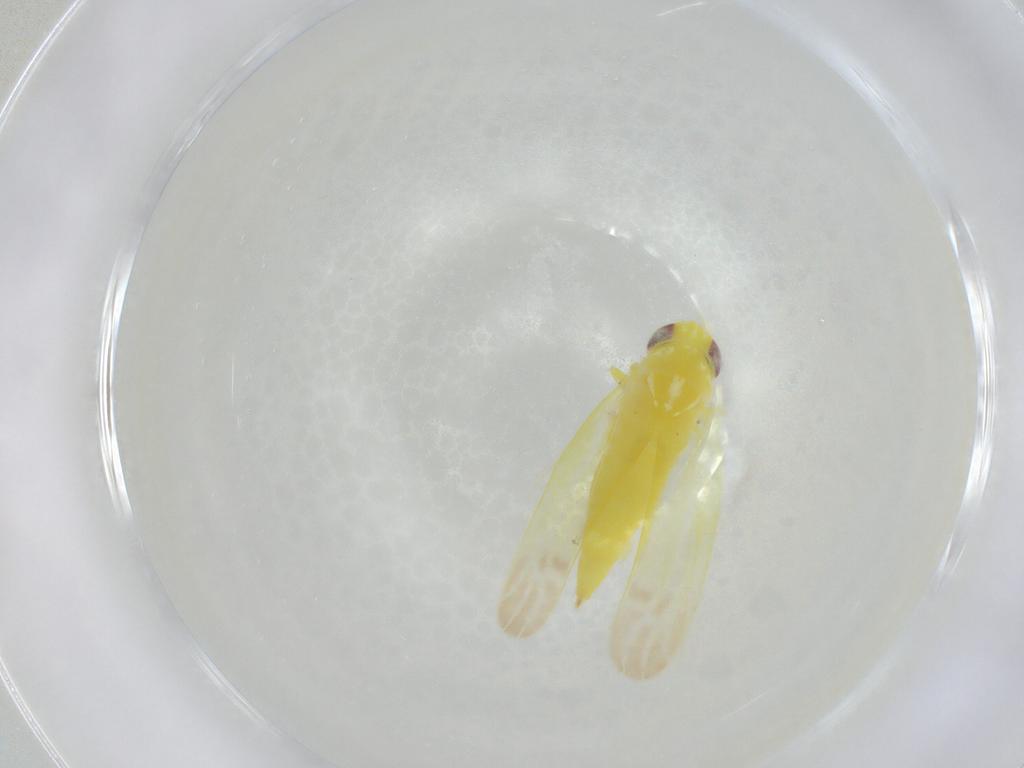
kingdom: Animalia
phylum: Arthropoda
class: Insecta
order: Hemiptera
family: Cicadellidae
